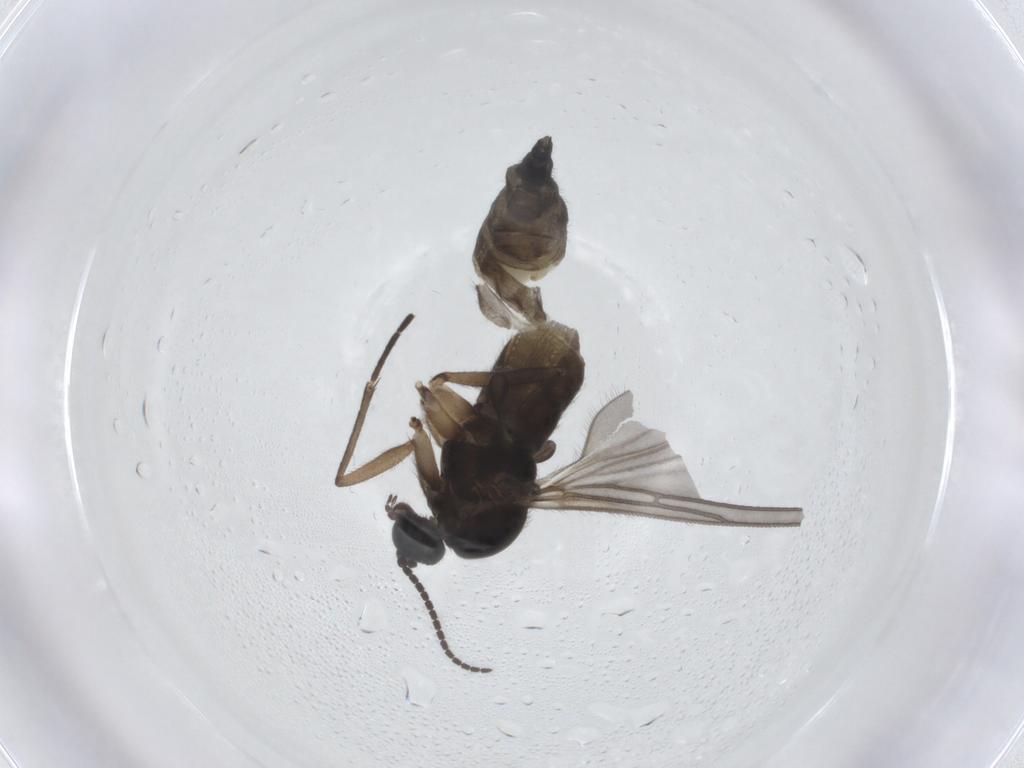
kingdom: Animalia
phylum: Arthropoda
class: Insecta
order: Diptera
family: Sciaridae
